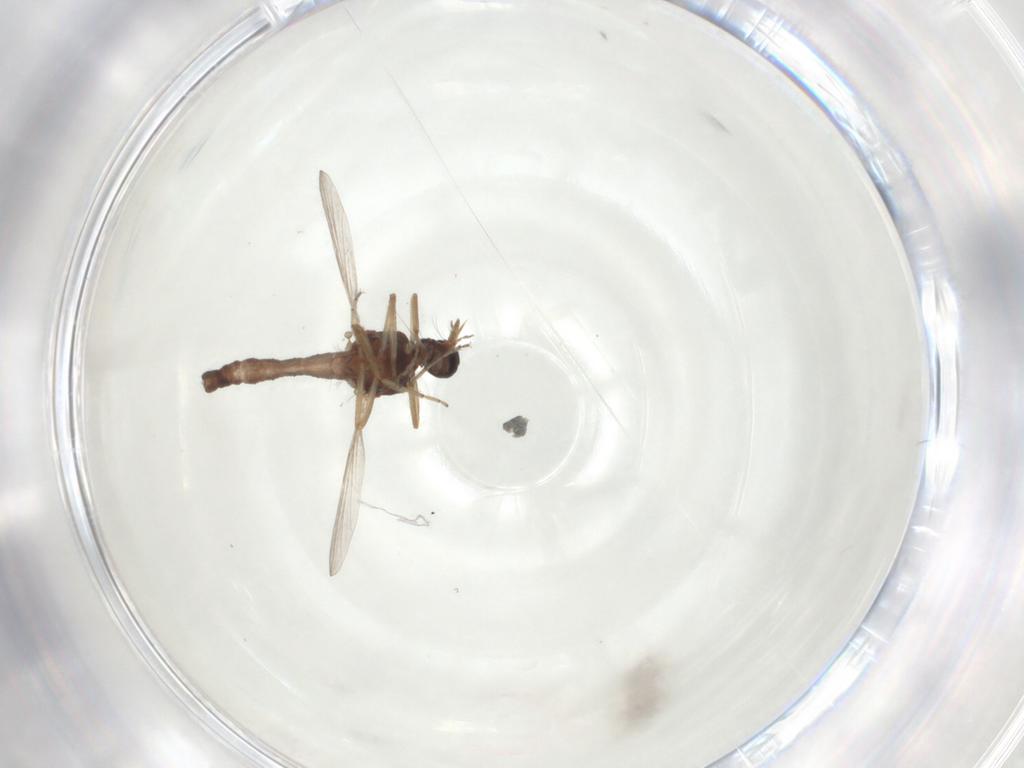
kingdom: Animalia
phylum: Arthropoda
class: Insecta
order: Diptera
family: Ceratopogonidae
